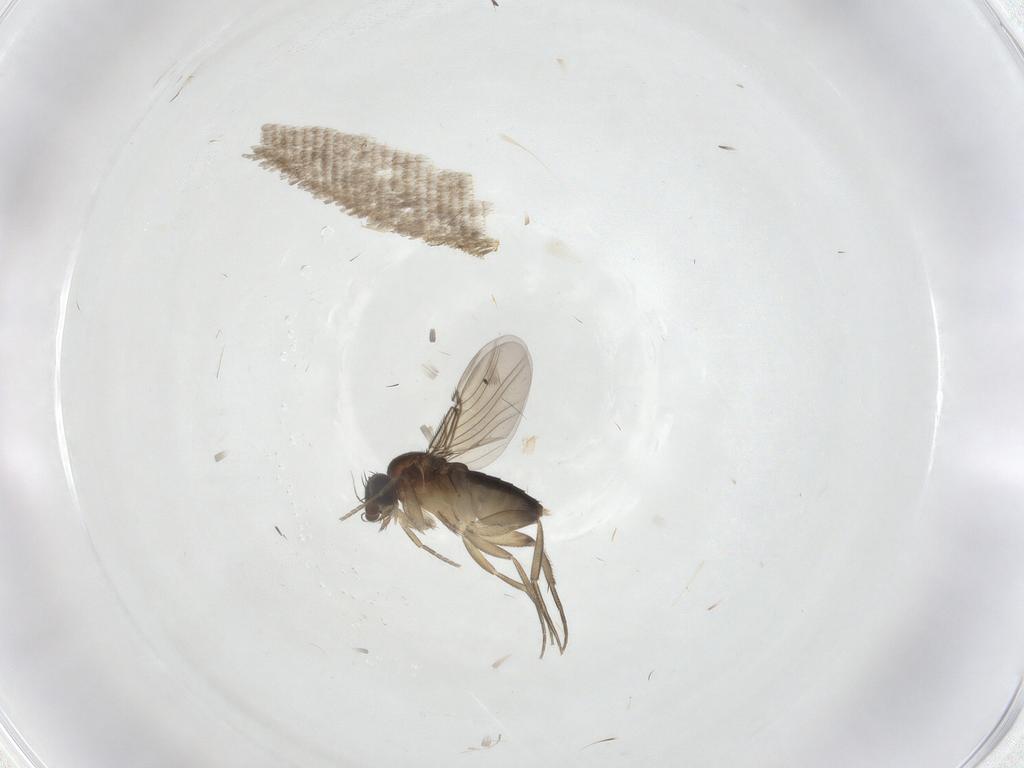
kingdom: Animalia
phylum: Arthropoda
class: Insecta
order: Diptera
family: Phoridae
